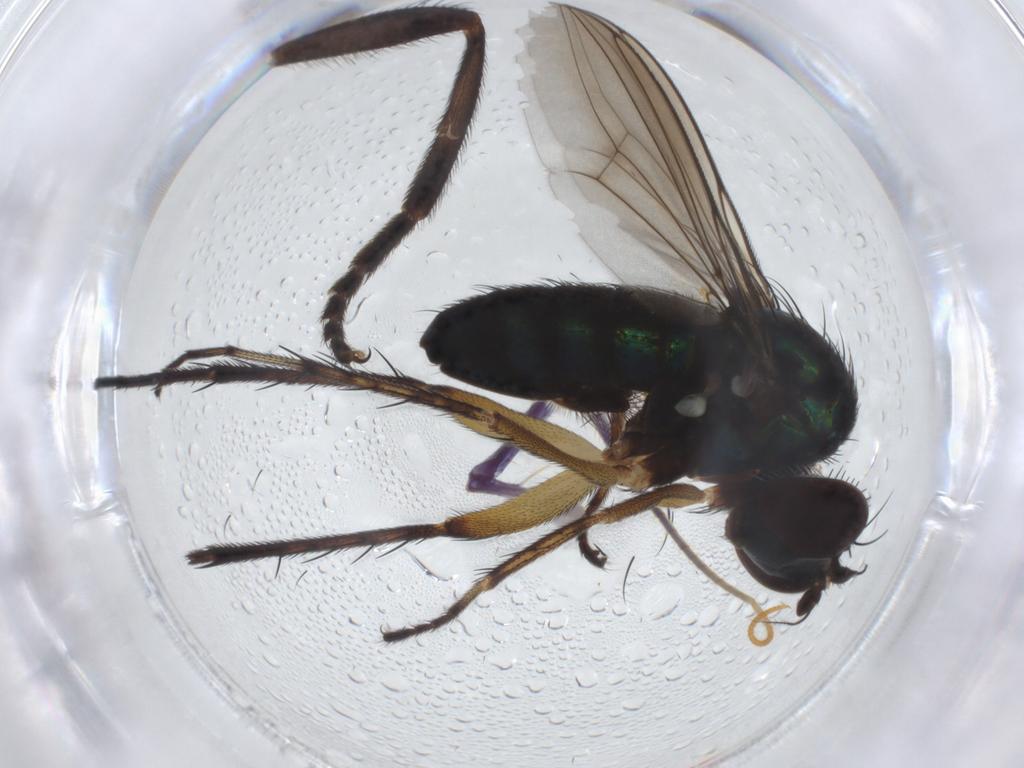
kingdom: Animalia
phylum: Arthropoda
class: Insecta
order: Diptera
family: Dolichopodidae
